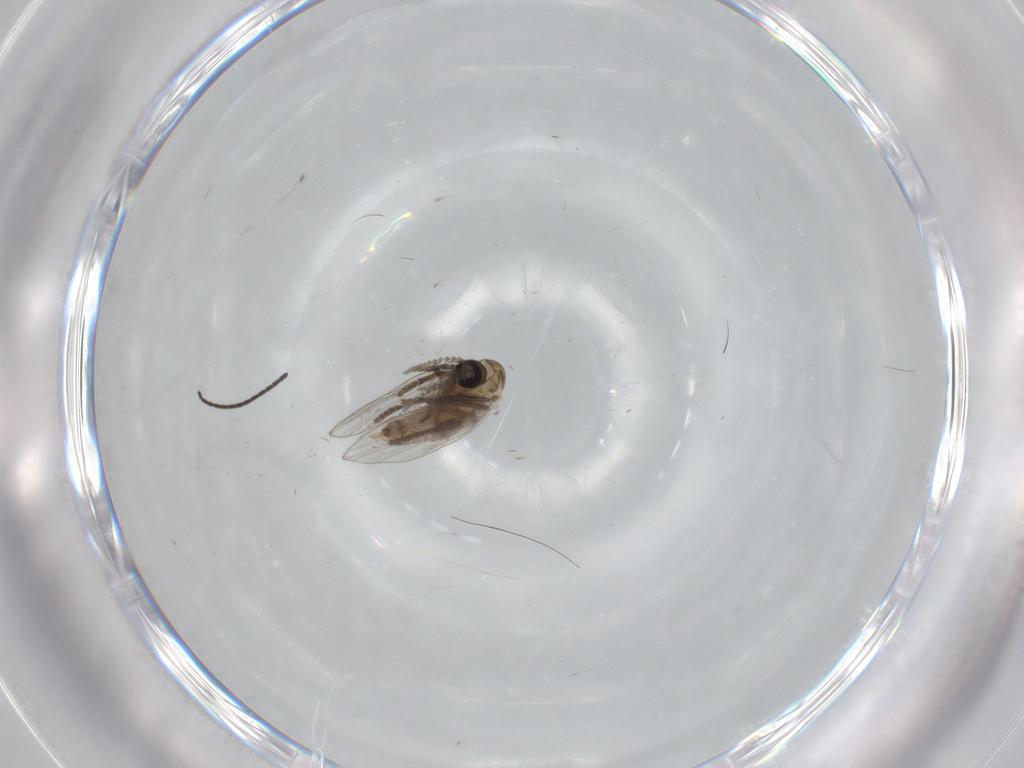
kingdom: Animalia
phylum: Arthropoda
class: Insecta
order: Diptera
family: Psychodidae
